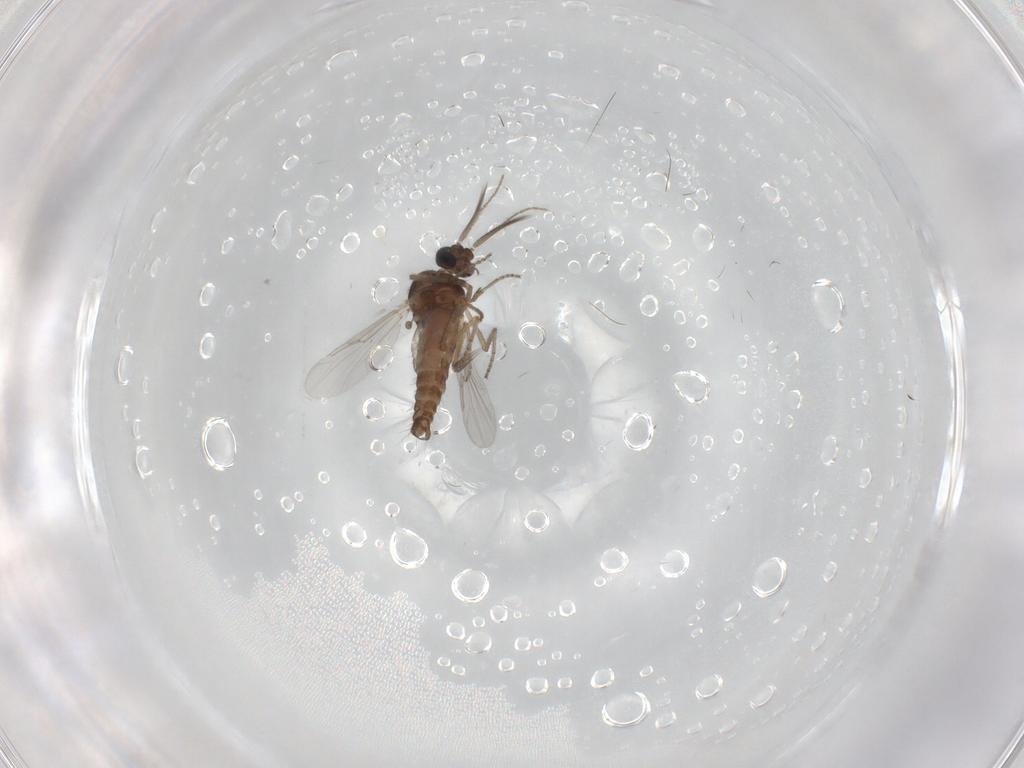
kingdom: Animalia
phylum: Arthropoda
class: Insecta
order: Diptera
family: Ceratopogonidae
